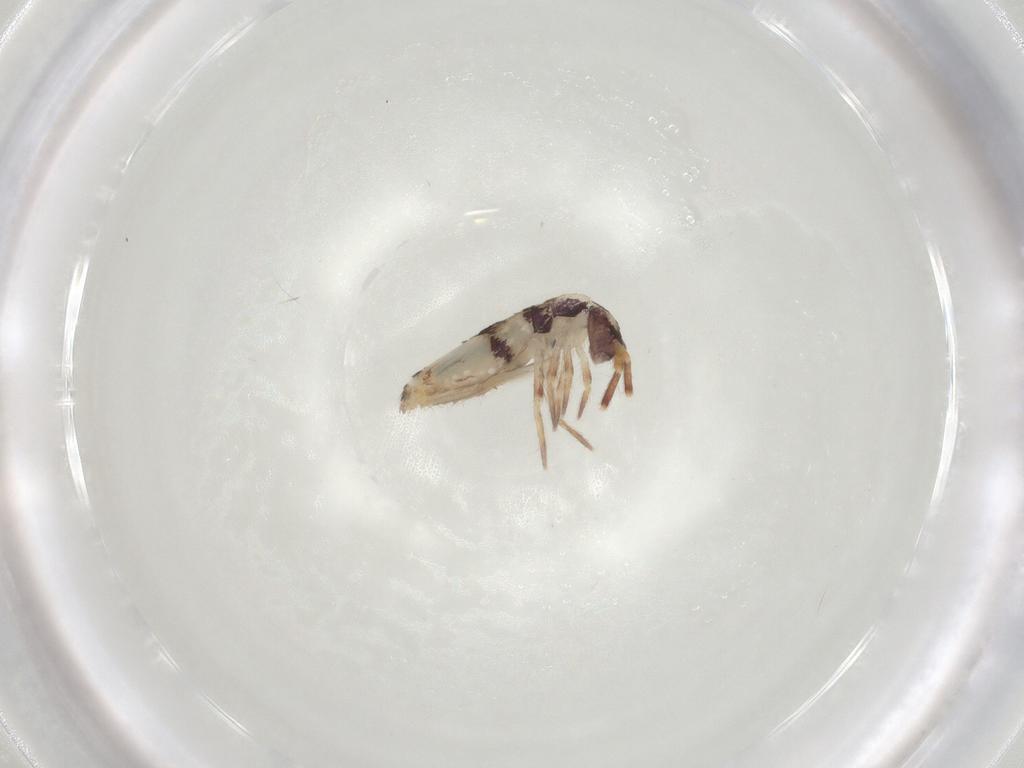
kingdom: Animalia
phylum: Arthropoda
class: Collembola
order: Entomobryomorpha
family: Entomobryidae
